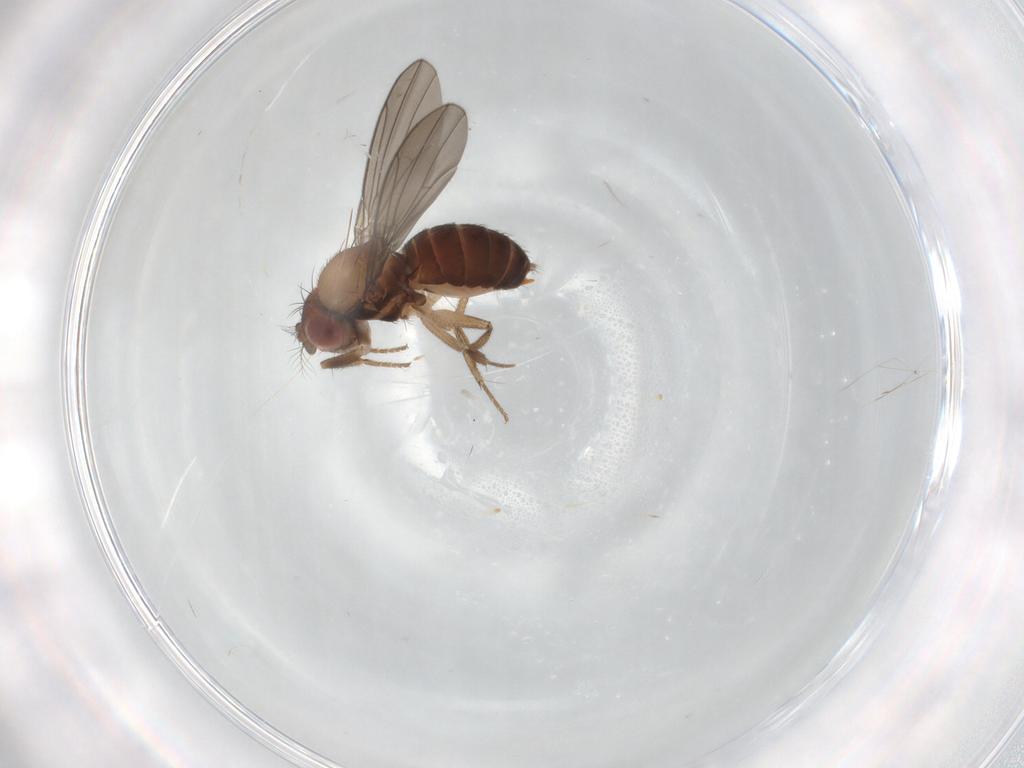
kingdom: Animalia
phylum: Arthropoda
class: Insecta
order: Diptera
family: Drosophilidae
